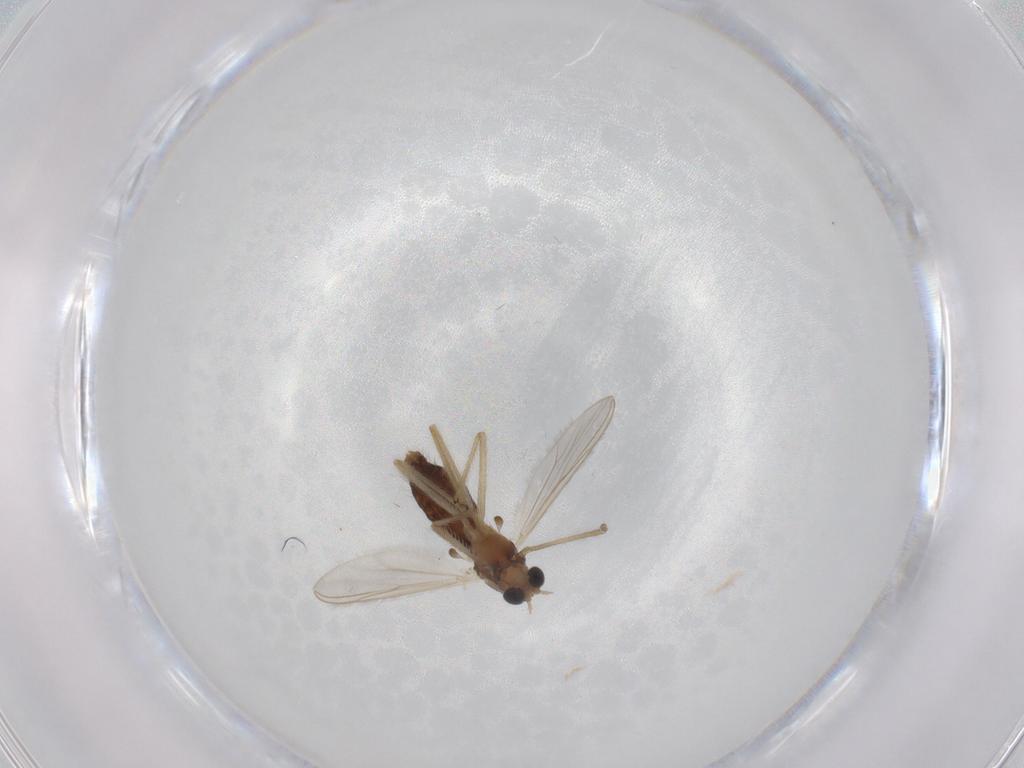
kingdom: Animalia
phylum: Arthropoda
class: Insecta
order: Diptera
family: Chironomidae
